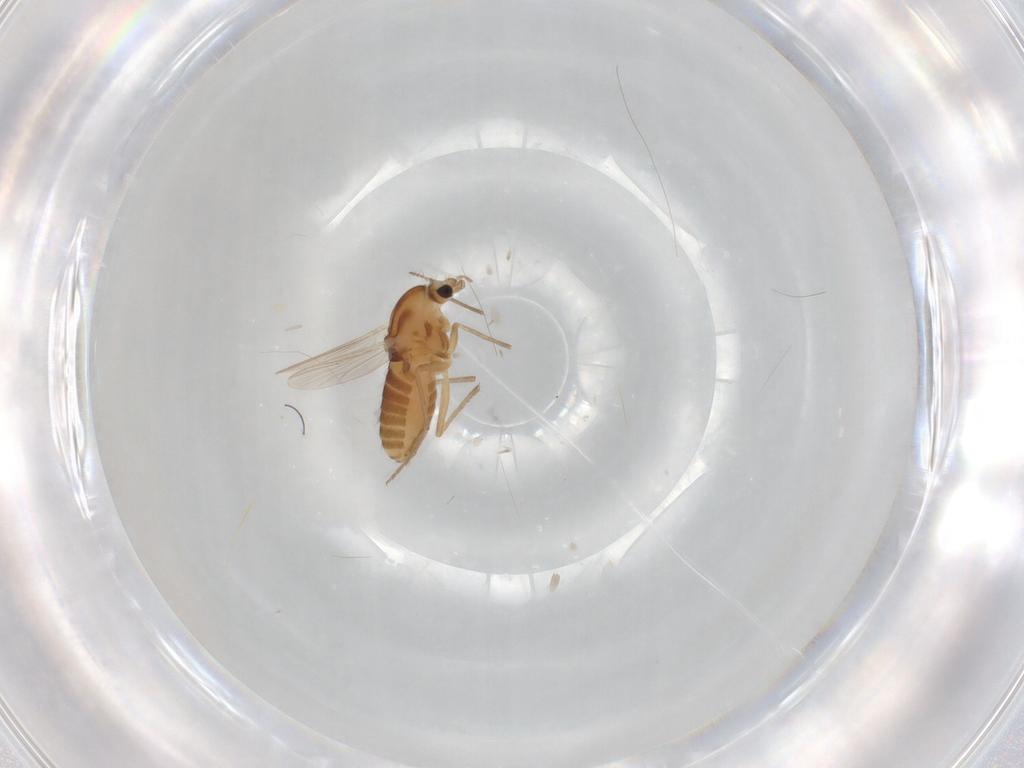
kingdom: Animalia
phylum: Arthropoda
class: Insecta
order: Diptera
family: Chironomidae
